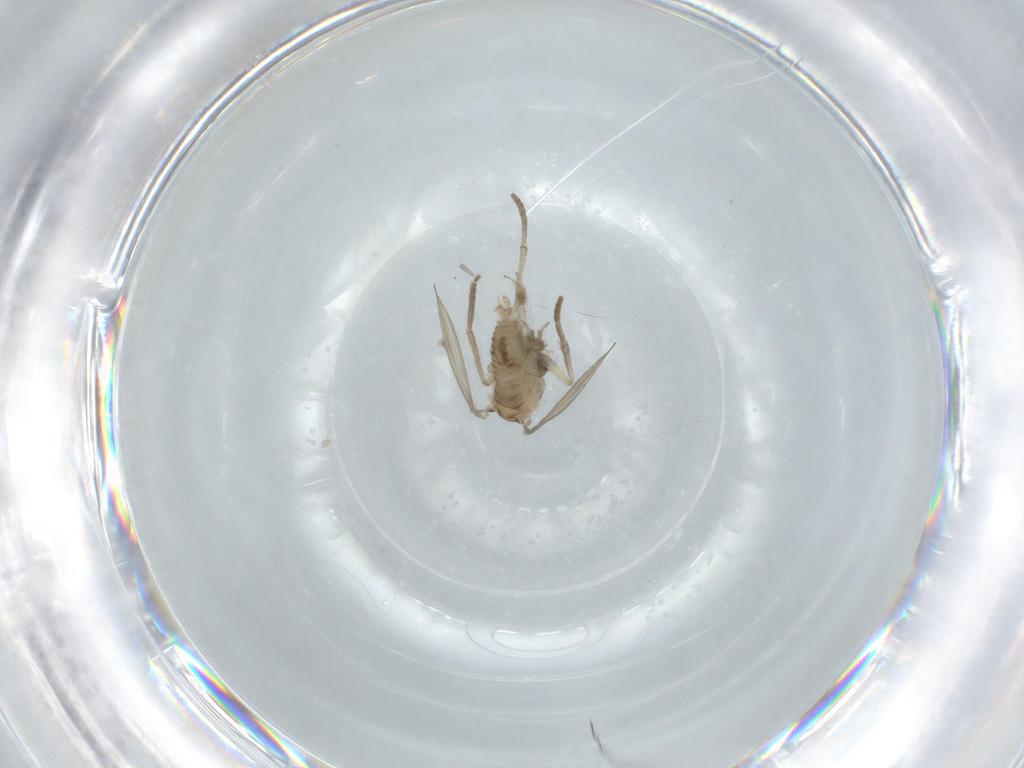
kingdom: Animalia
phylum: Arthropoda
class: Insecta
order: Diptera
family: Psychodidae
